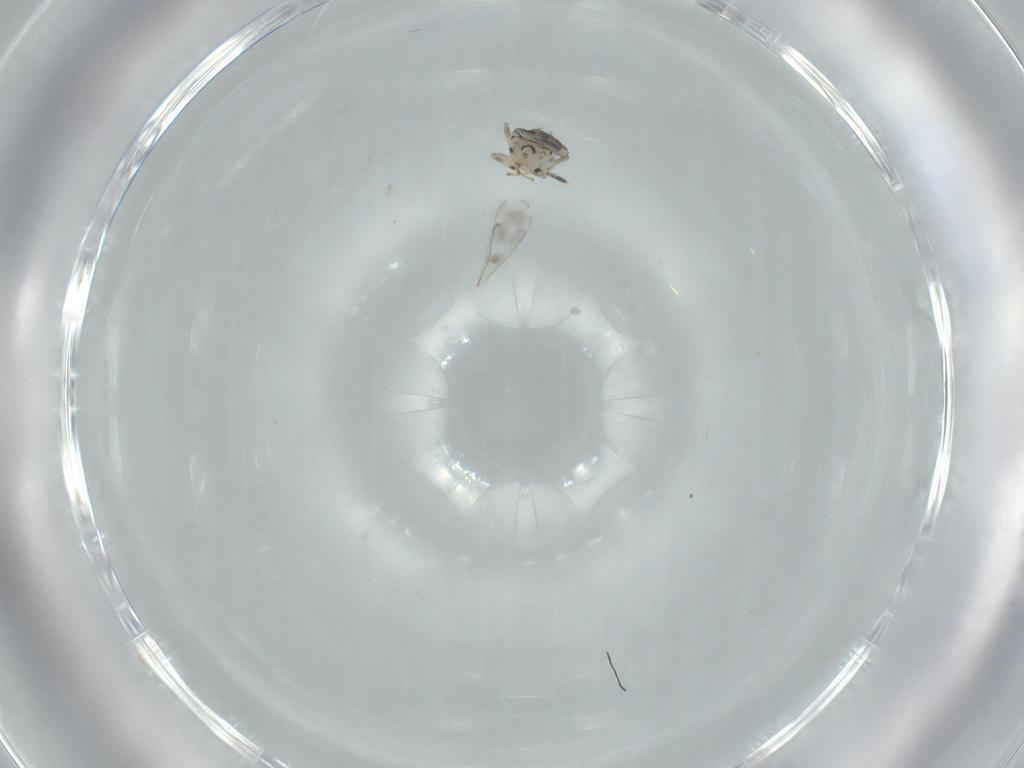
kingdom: Animalia
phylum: Arthropoda
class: Insecta
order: Hymenoptera
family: Aphelinidae
